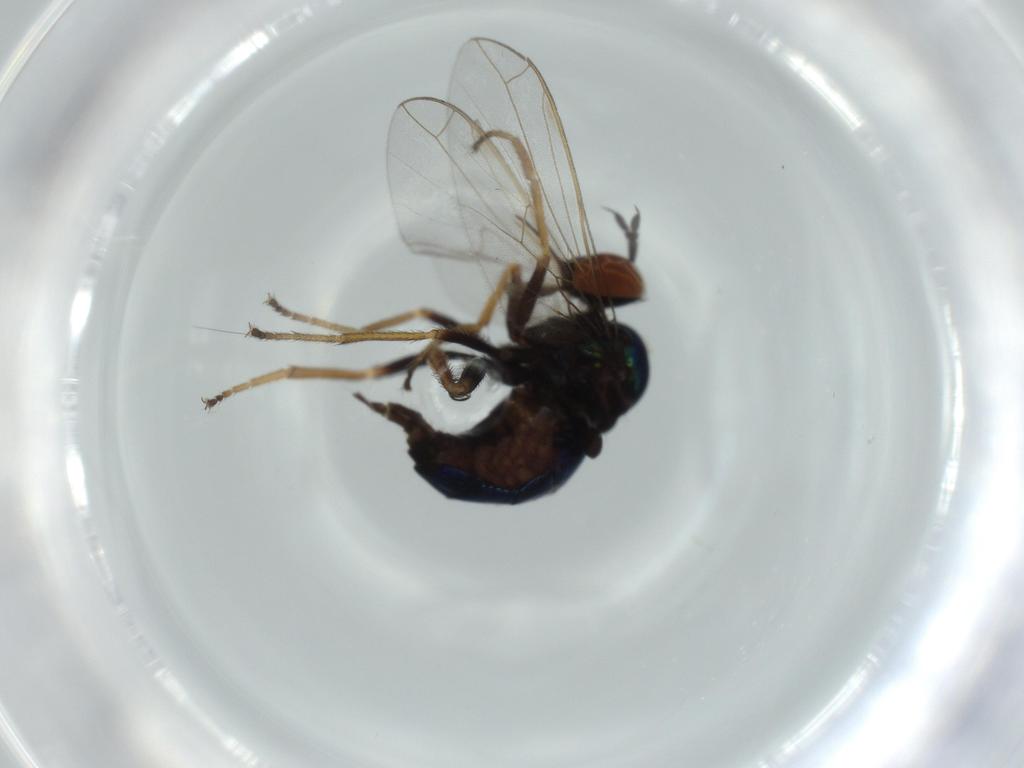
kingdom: Animalia
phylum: Arthropoda
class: Insecta
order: Diptera
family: Empididae
